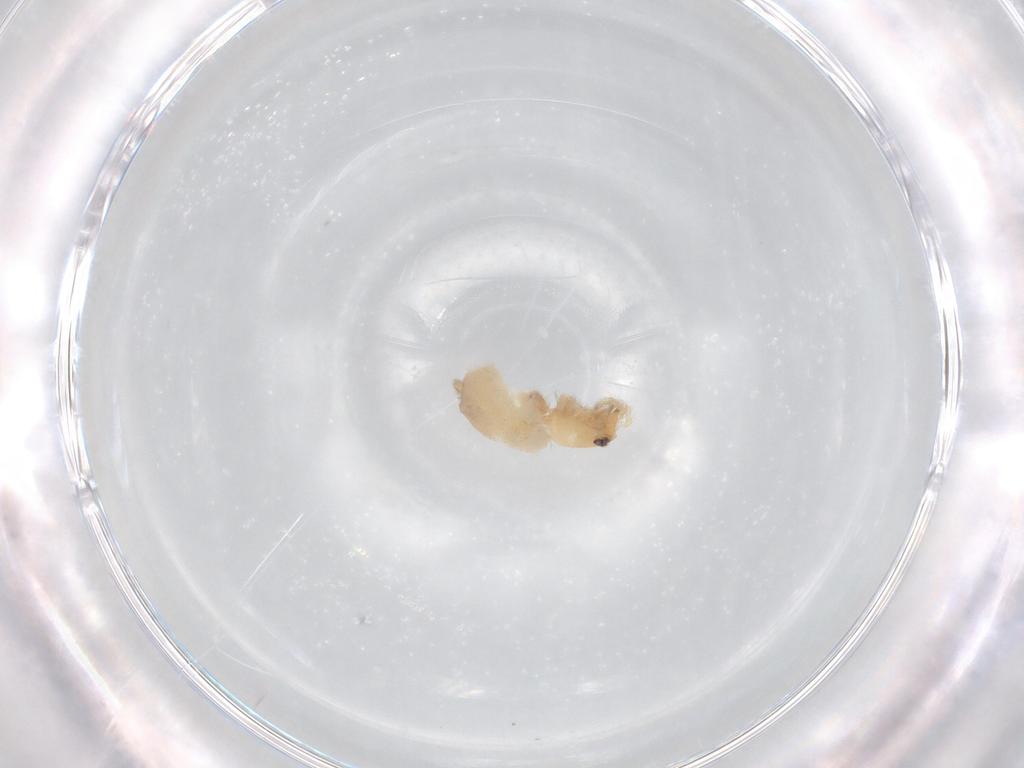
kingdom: Animalia
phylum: Arthropoda
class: Arachnida
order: Araneae
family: Oonopidae
